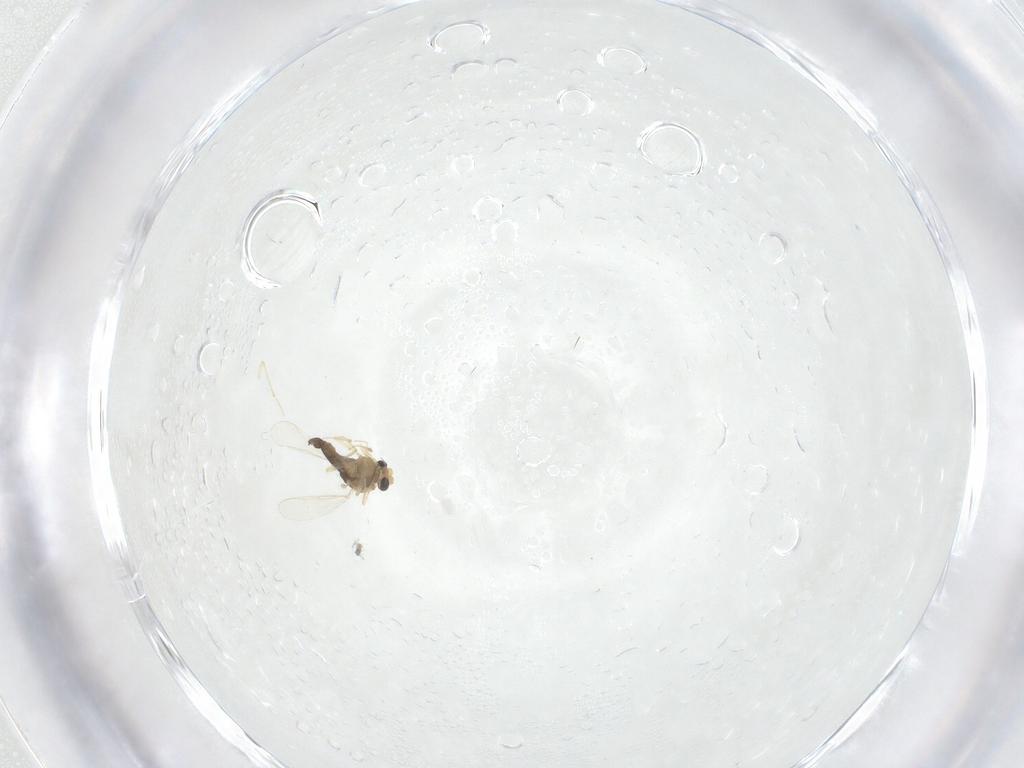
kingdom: Animalia
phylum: Arthropoda
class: Insecta
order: Diptera
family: Chironomidae
